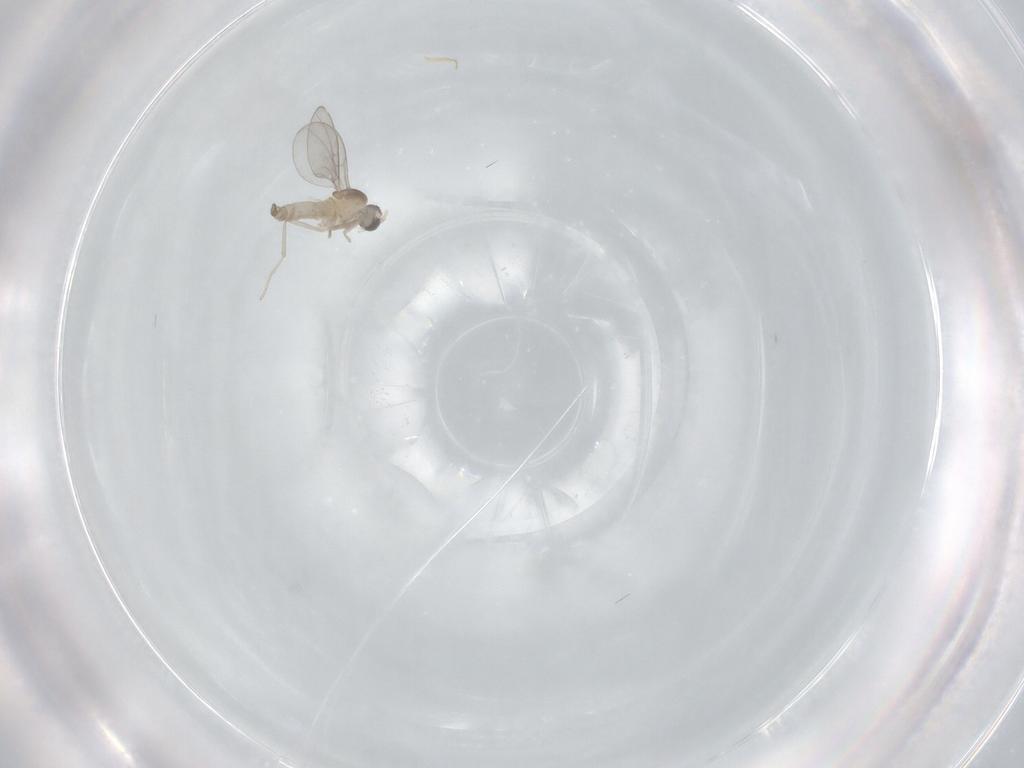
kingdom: Animalia
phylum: Arthropoda
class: Insecta
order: Diptera
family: Chironomidae
